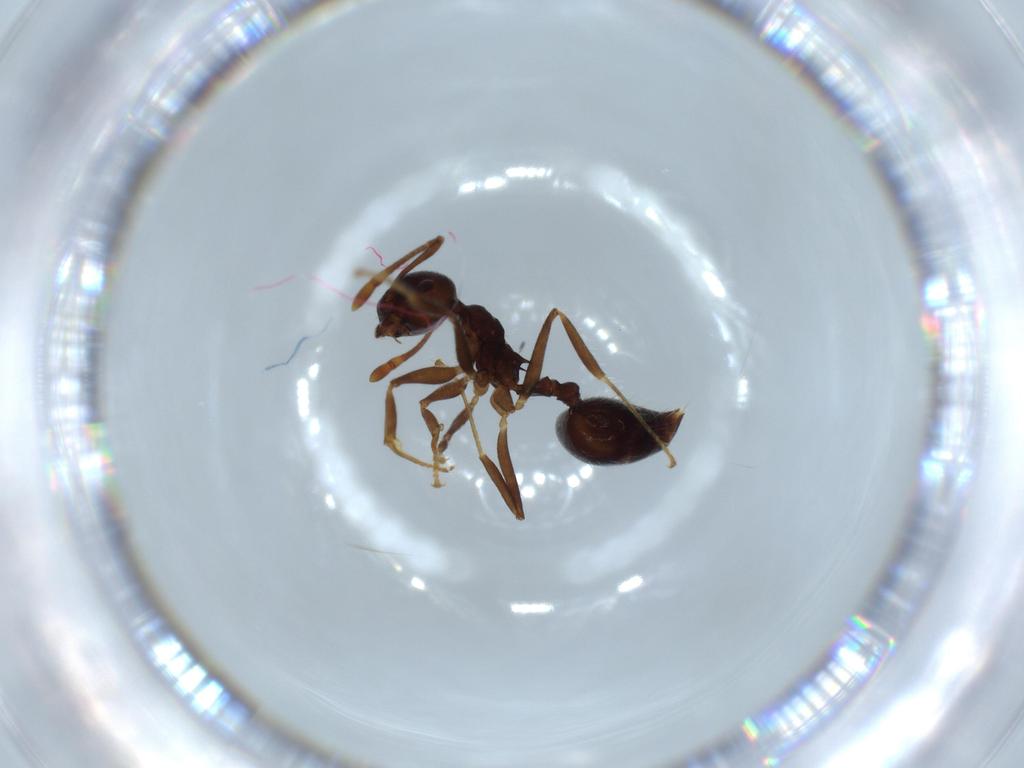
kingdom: Animalia
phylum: Arthropoda
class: Insecta
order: Hymenoptera
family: Formicidae
